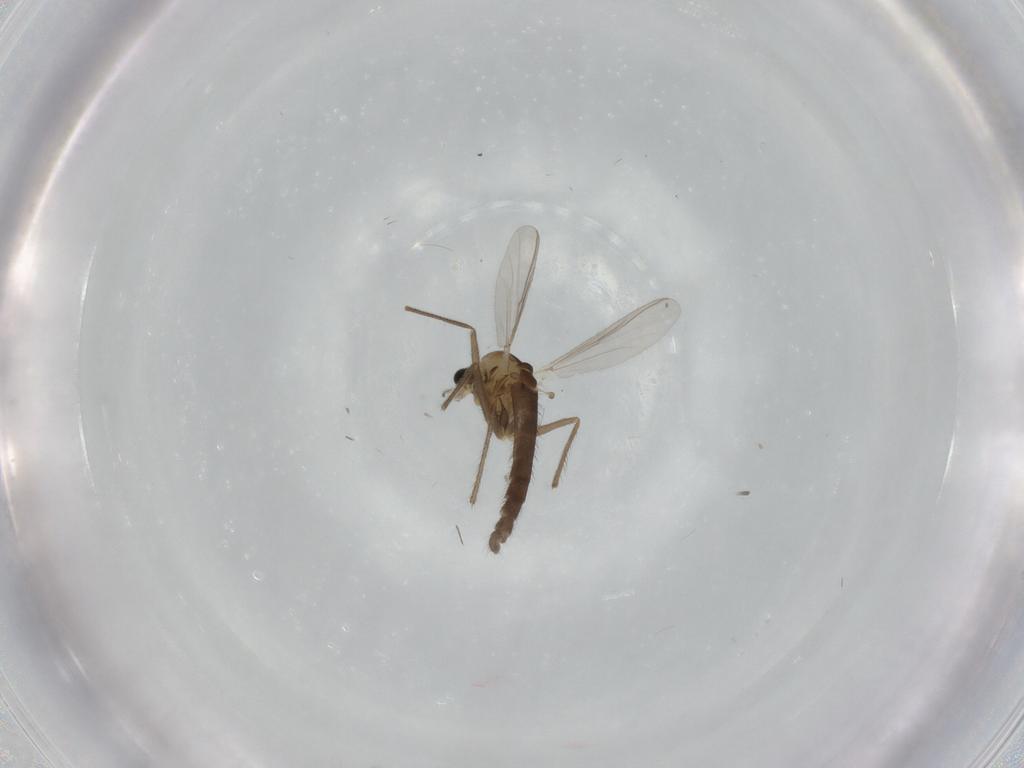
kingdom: Animalia
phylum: Arthropoda
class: Insecta
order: Diptera
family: Chironomidae
